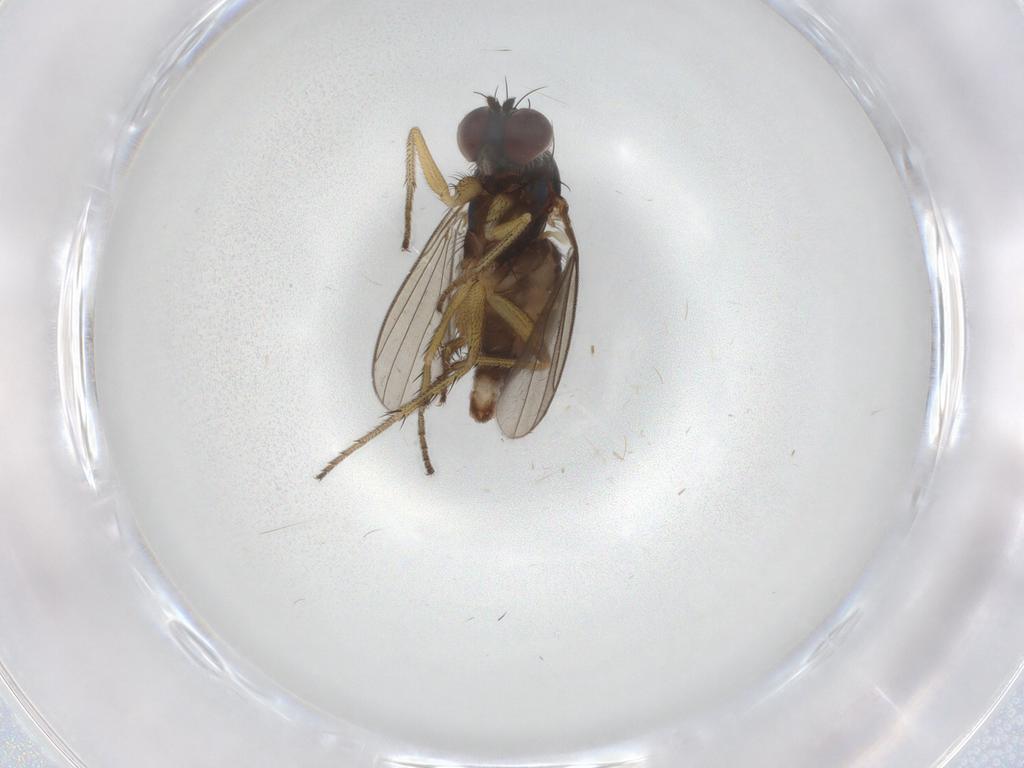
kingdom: Animalia
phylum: Arthropoda
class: Insecta
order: Diptera
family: Dolichopodidae
